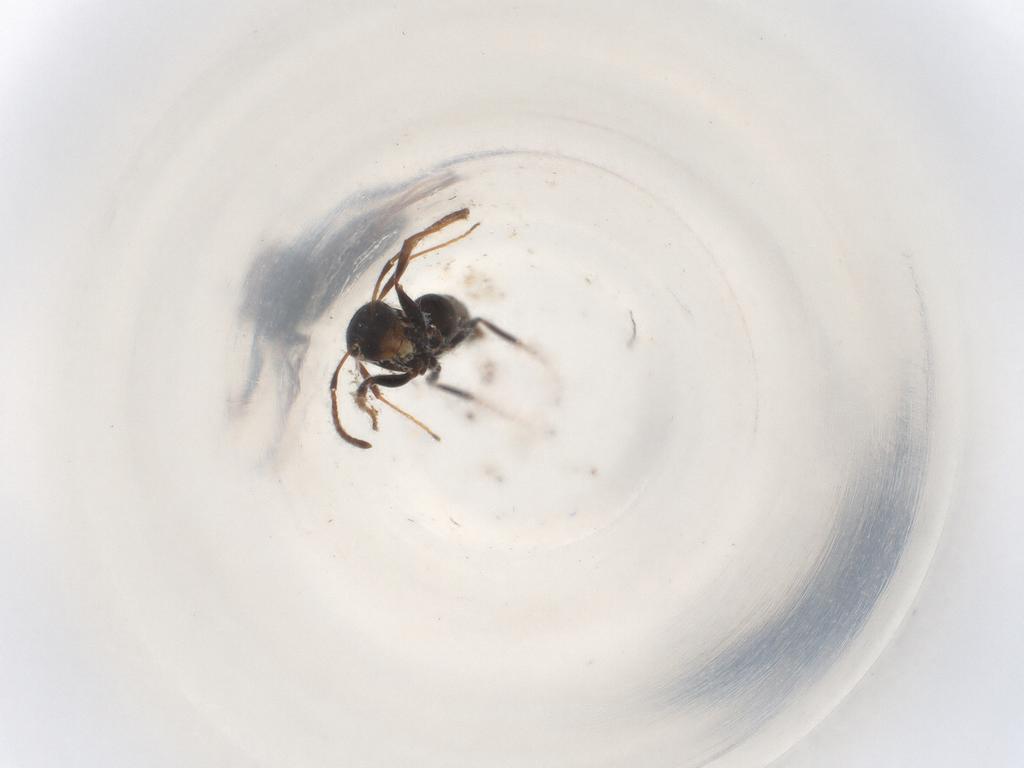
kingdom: Animalia
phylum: Arthropoda
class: Insecta
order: Hymenoptera
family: Formicidae
